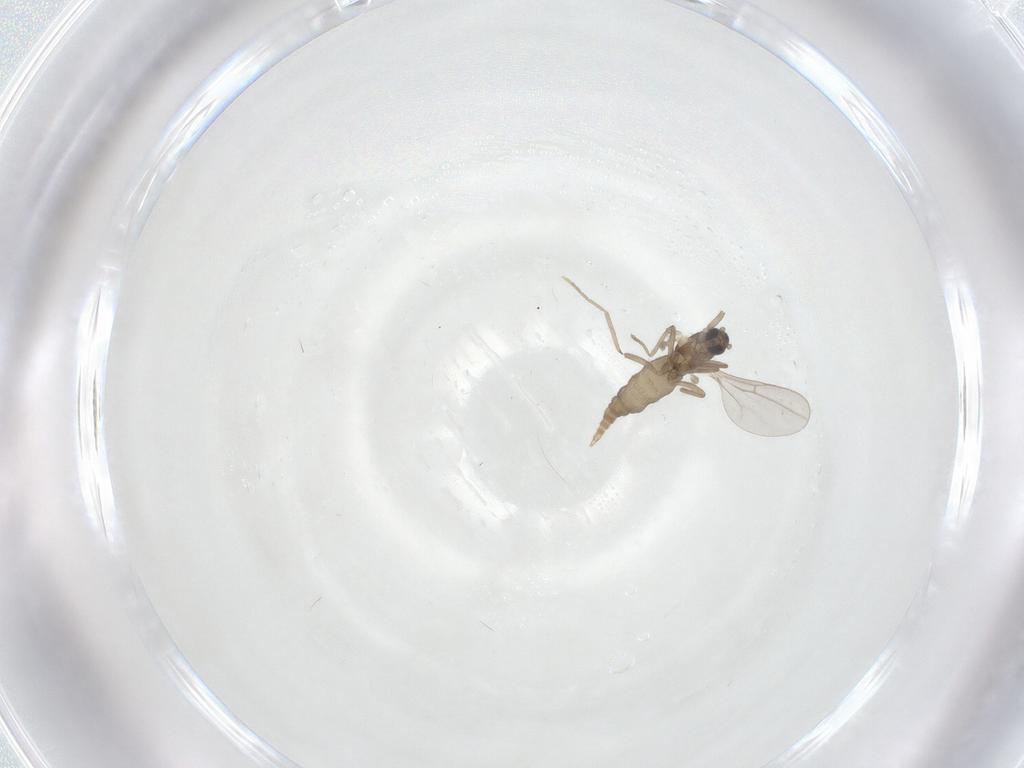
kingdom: Animalia
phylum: Arthropoda
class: Insecta
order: Diptera
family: Cecidomyiidae
